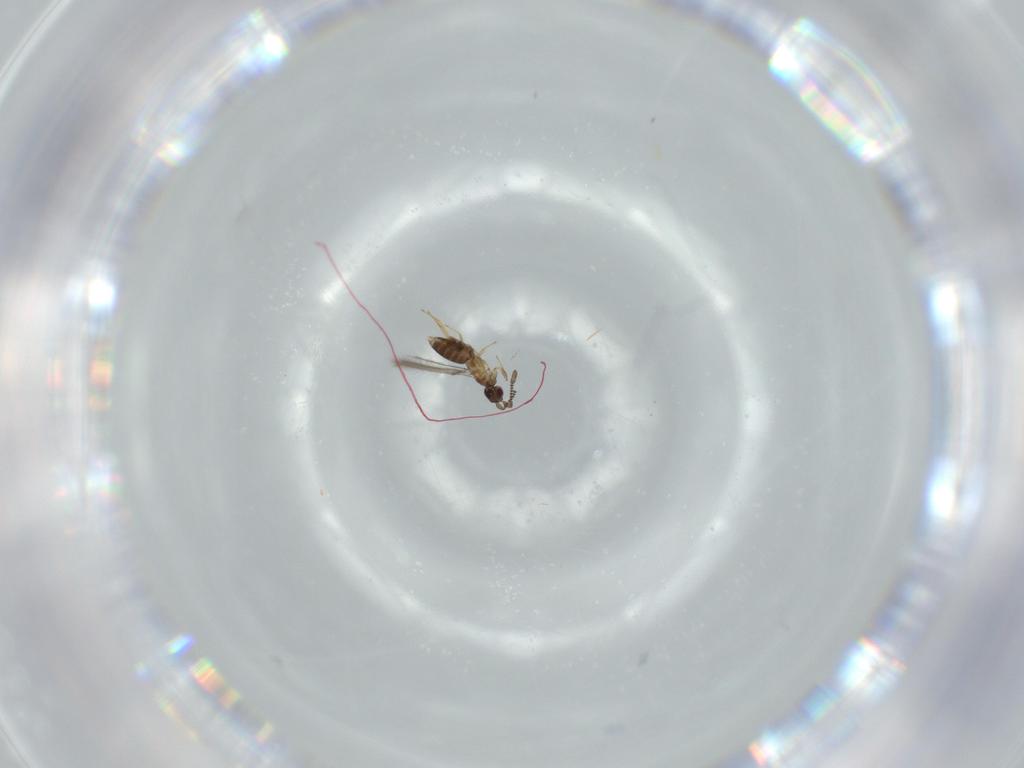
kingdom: Animalia
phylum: Arthropoda
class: Insecta
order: Hymenoptera
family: Mymaridae
